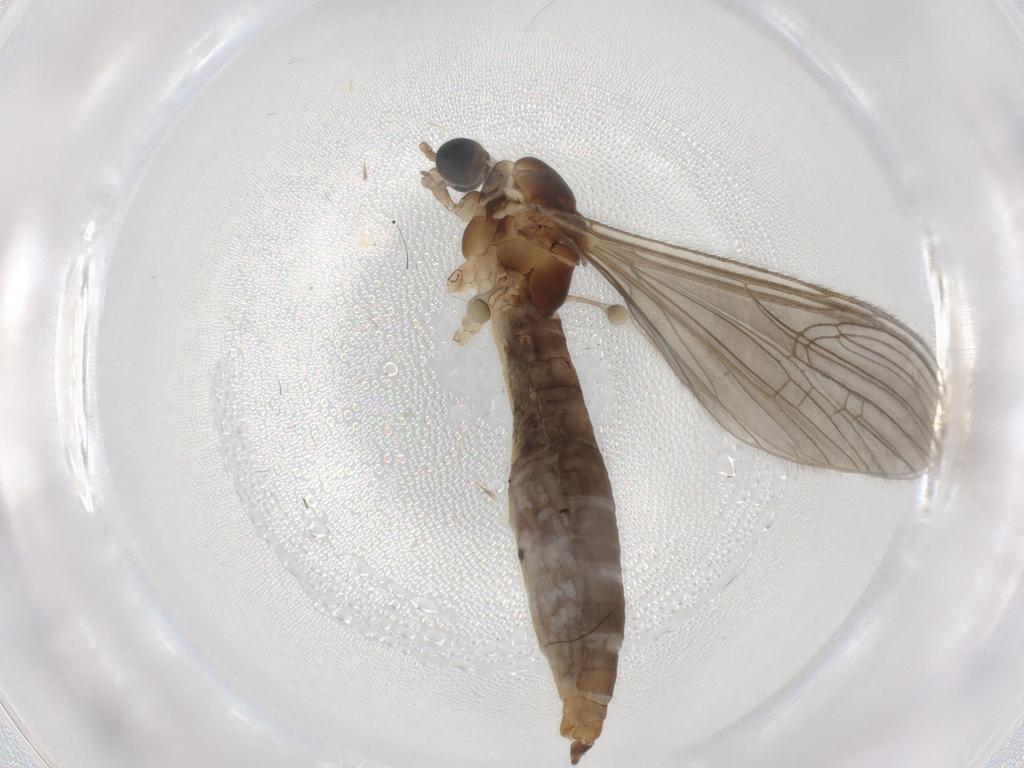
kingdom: Animalia
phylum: Arthropoda
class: Insecta
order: Diptera
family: Limoniidae
